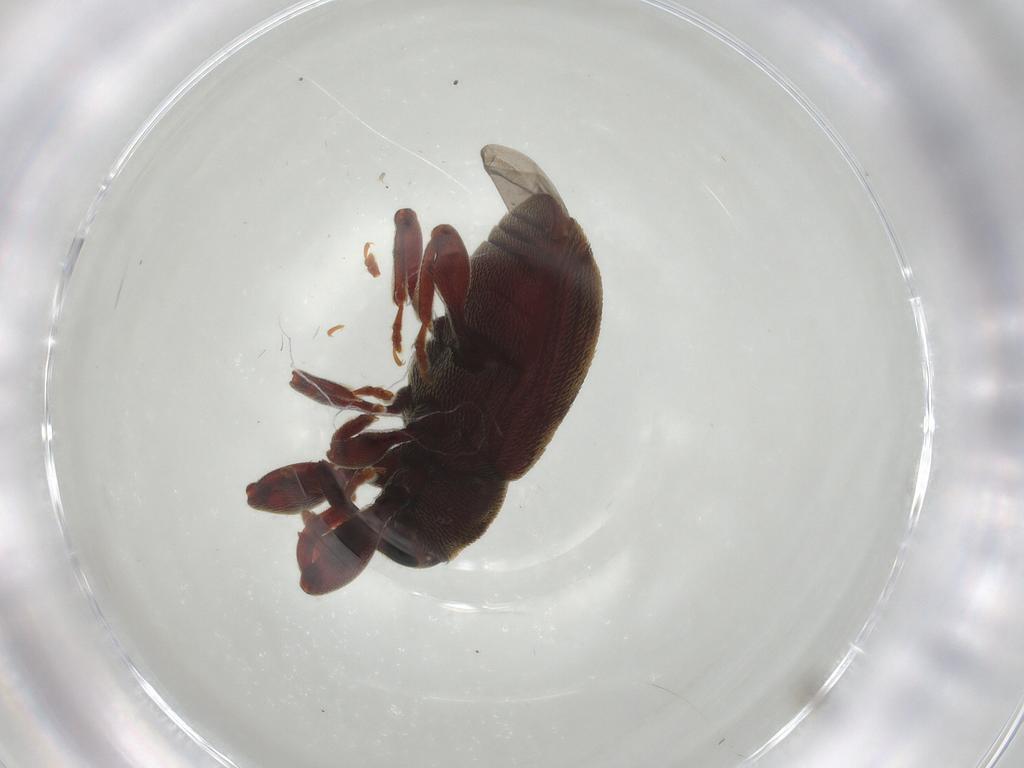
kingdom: Animalia
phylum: Arthropoda
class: Insecta
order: Coleoptera
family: Curculionidae
